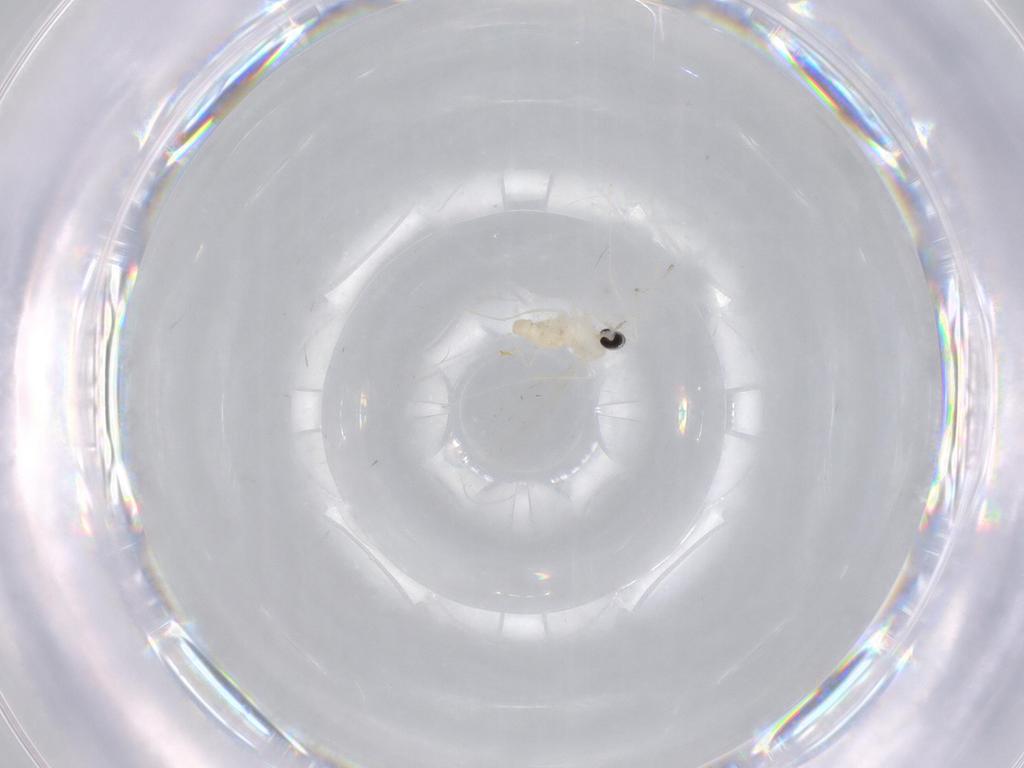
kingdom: Animalia
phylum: Arthropoda
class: Insecta
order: Diptera
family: Cecidomyiidae
